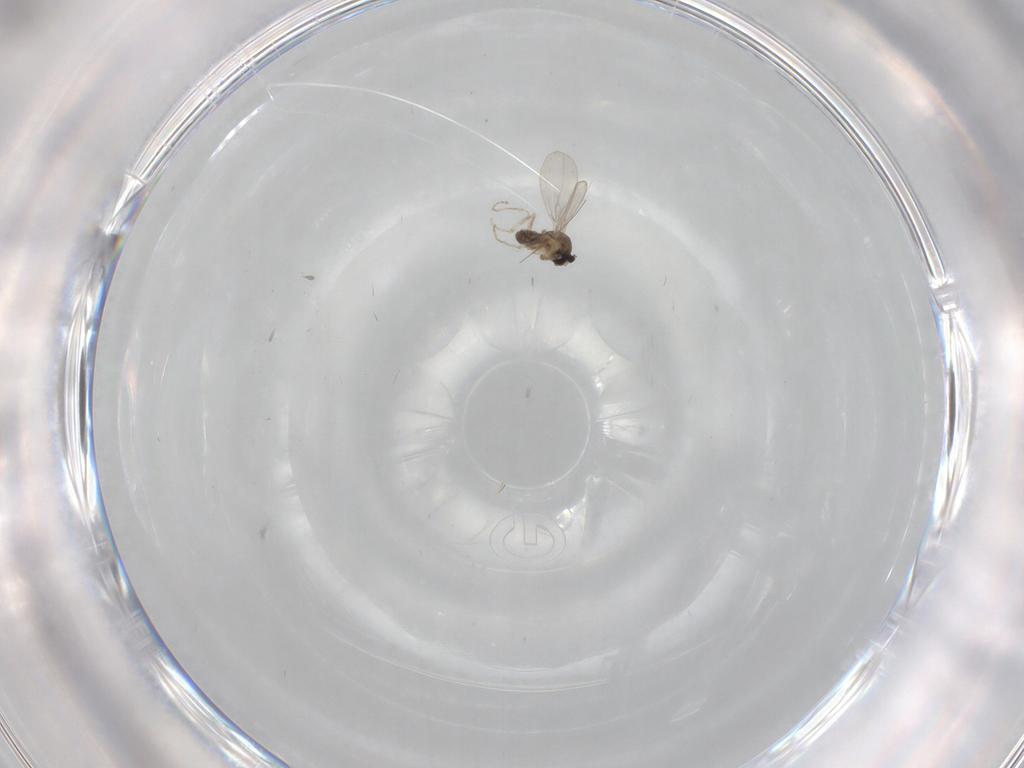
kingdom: Animalia
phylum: Arthropoda
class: Insecta
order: Diptera
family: Cecidomyiidae
